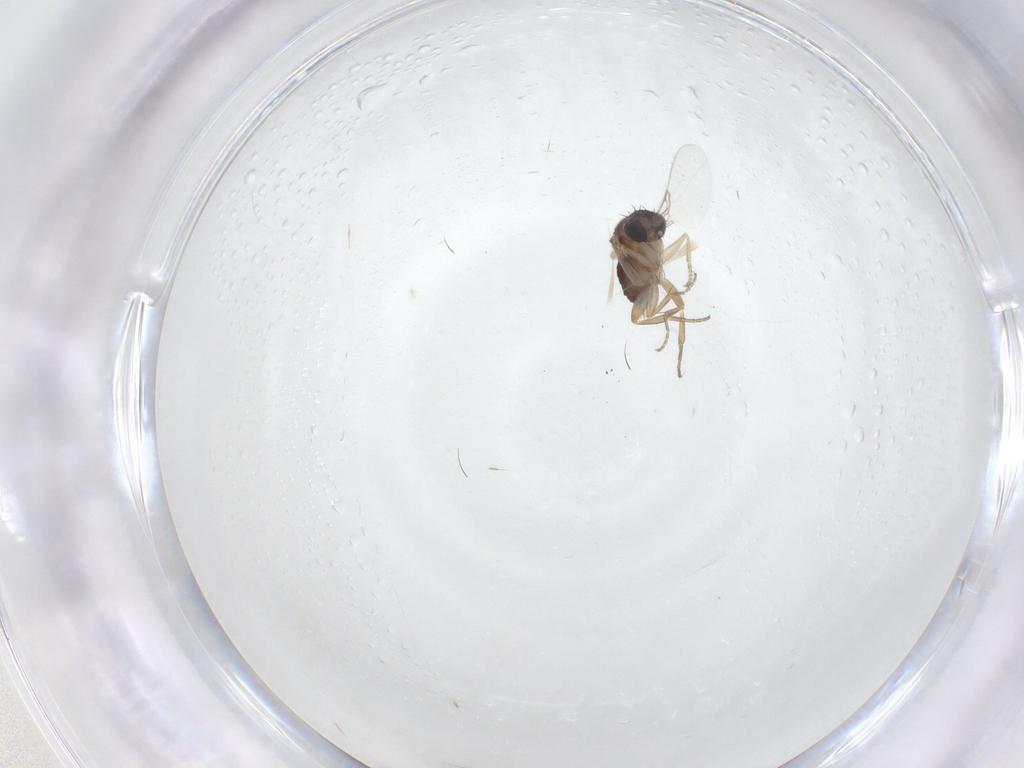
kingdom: Animalia
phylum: Arthropoda
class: Insecta
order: Diptera
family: Phoridae
